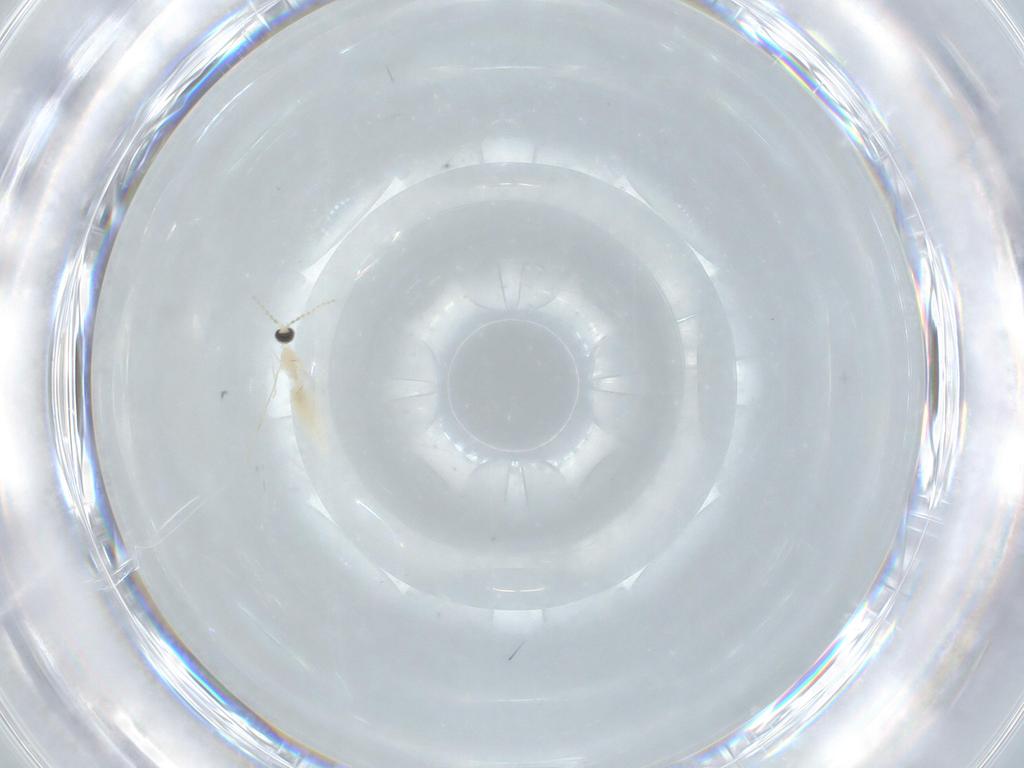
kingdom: Animalia
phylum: Arthropoda
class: Insecta
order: Diptera
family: Cecidomyiidae
